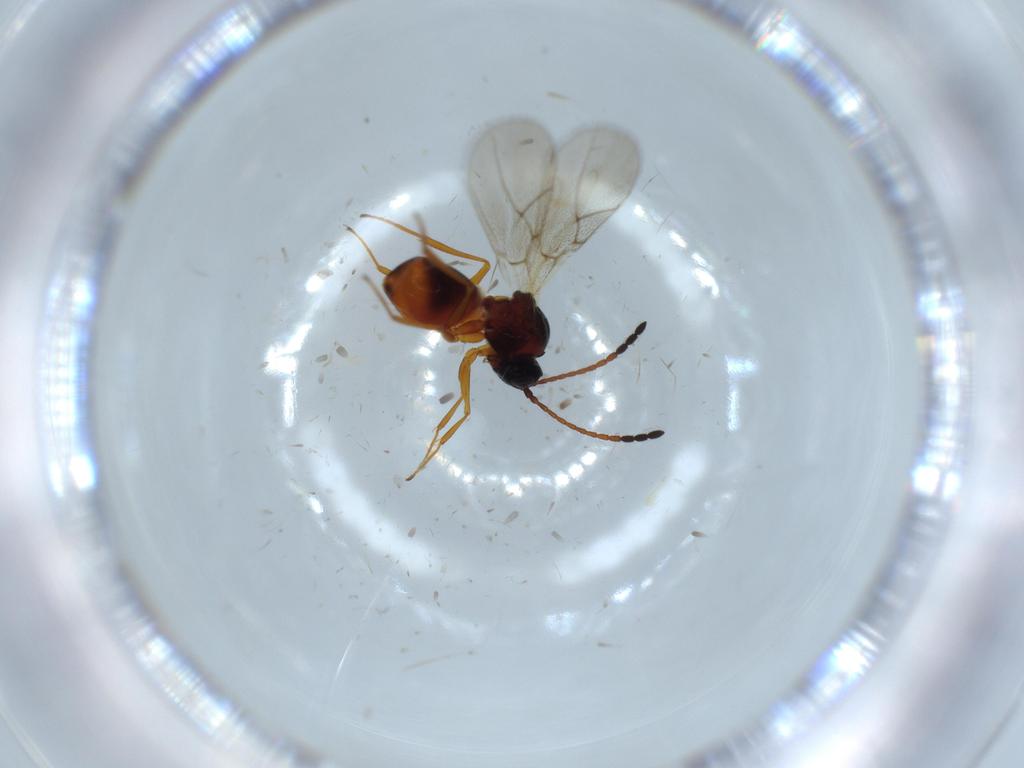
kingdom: Animalia
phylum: Arthropoda
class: Insecta
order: Hymenoptera
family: Figitidae
